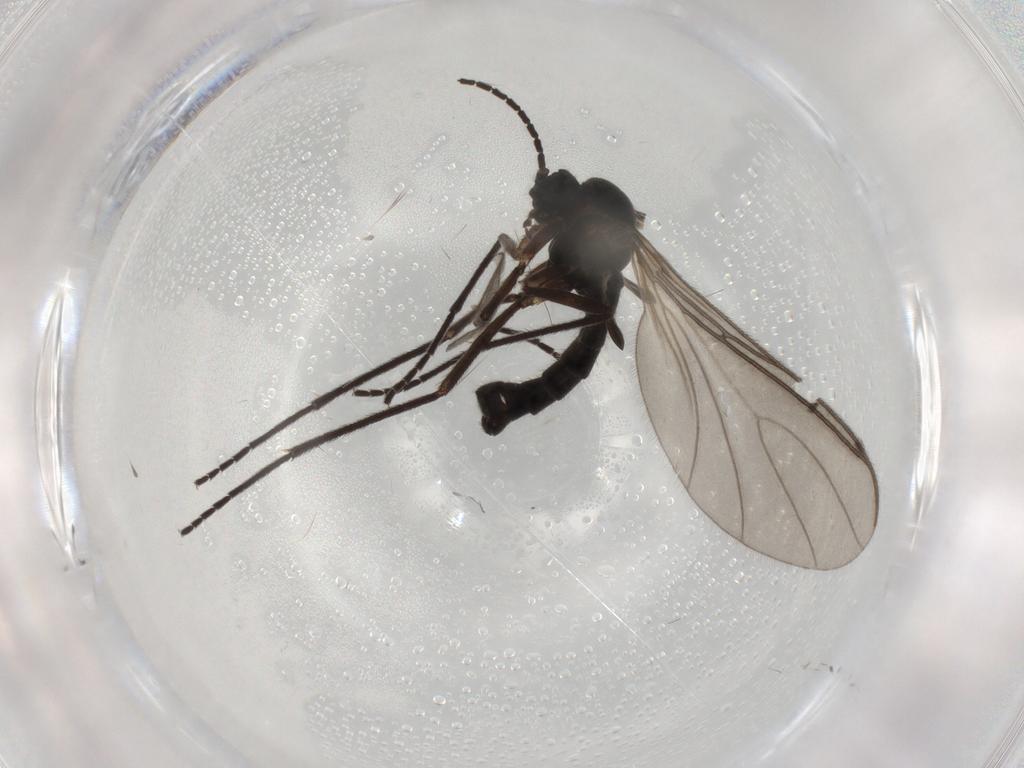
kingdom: Animalia
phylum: Arthropoda
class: Insecta
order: Diptera
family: Sciaridae
